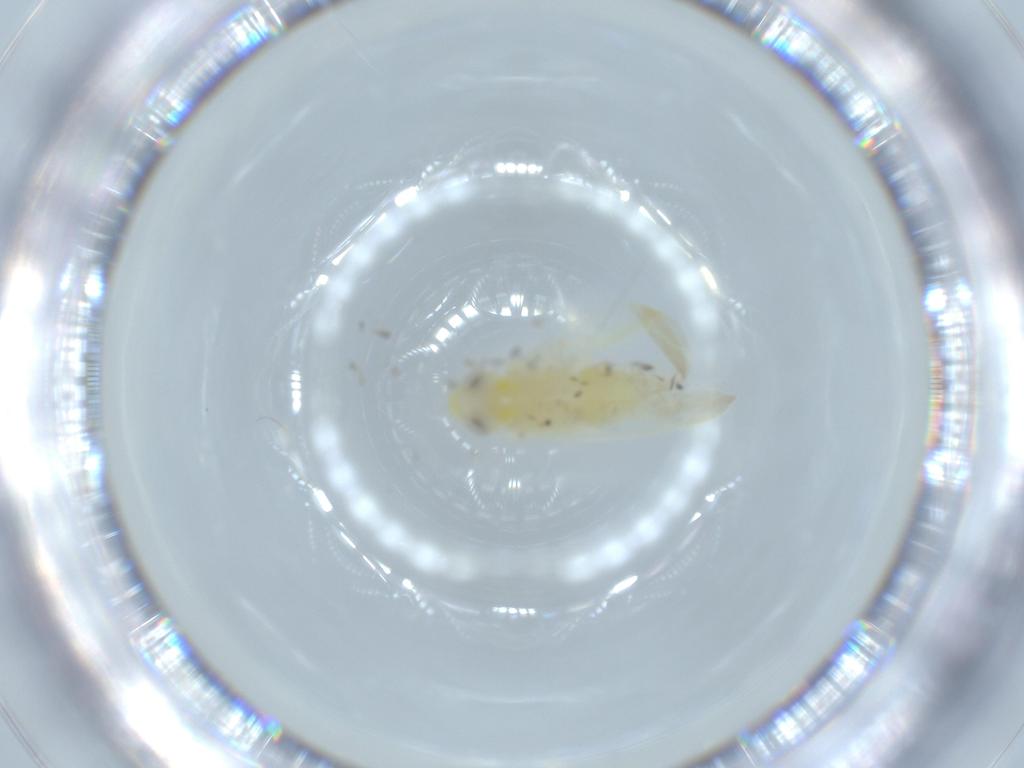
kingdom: Animalia
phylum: Arthropoda
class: Insecta
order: Hemiptera
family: Cicadellidae
